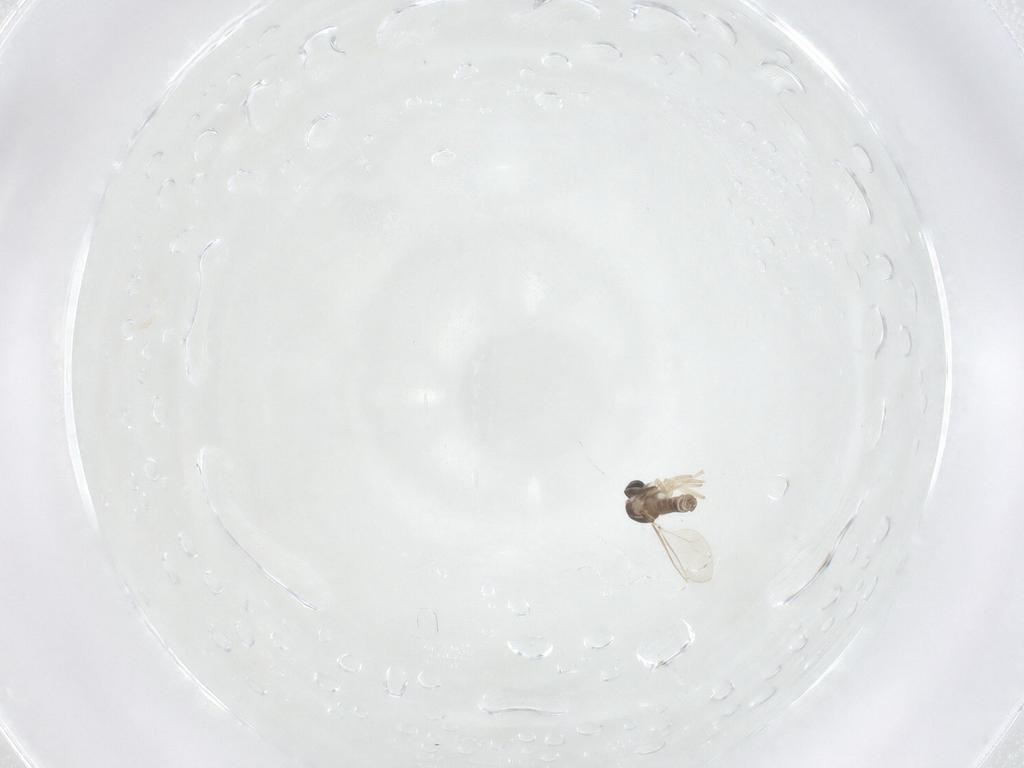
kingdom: Animalia
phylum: Arthropoda
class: Insecta
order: Diptera
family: Cecidomyiidae
